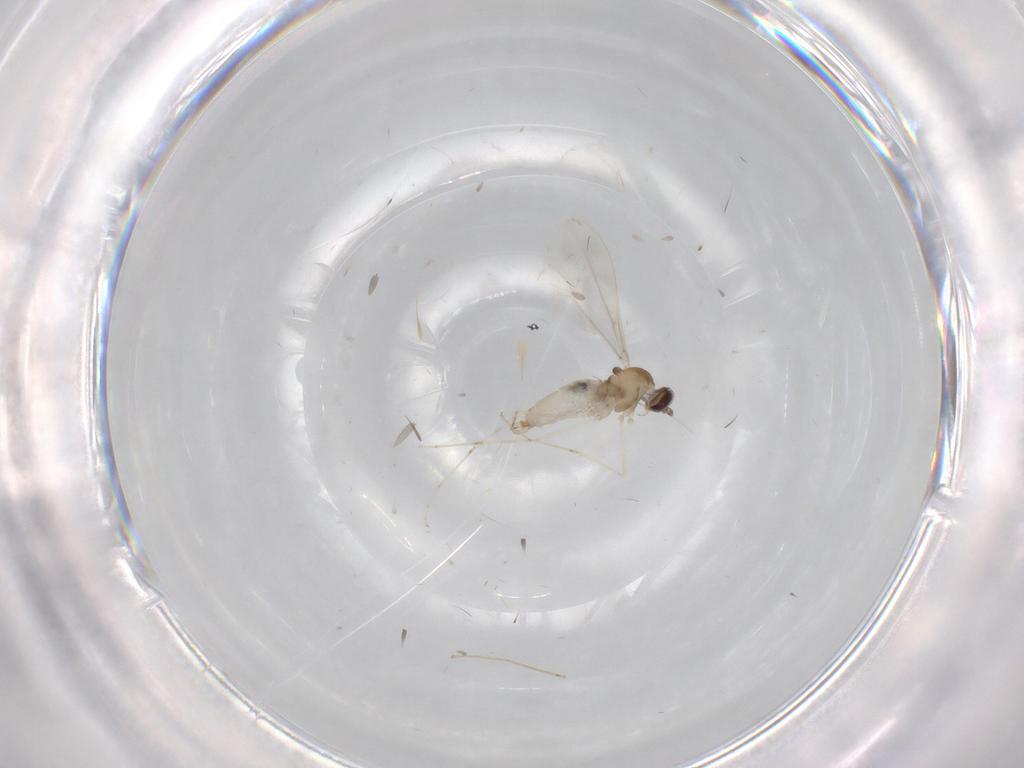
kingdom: Animalia
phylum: Arthropoda
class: Insecta
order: Diptera
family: Cecidomyiidae
